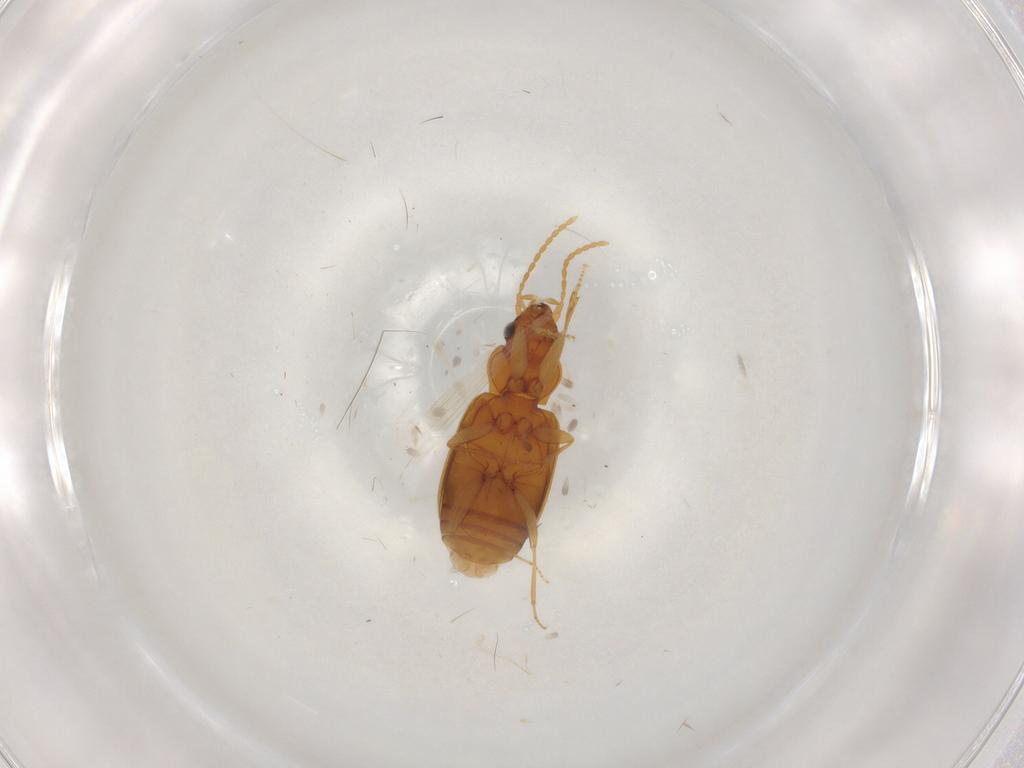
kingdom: Animalia
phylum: Arthropoda
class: Insecta
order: Coleoptera
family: Carabidae
